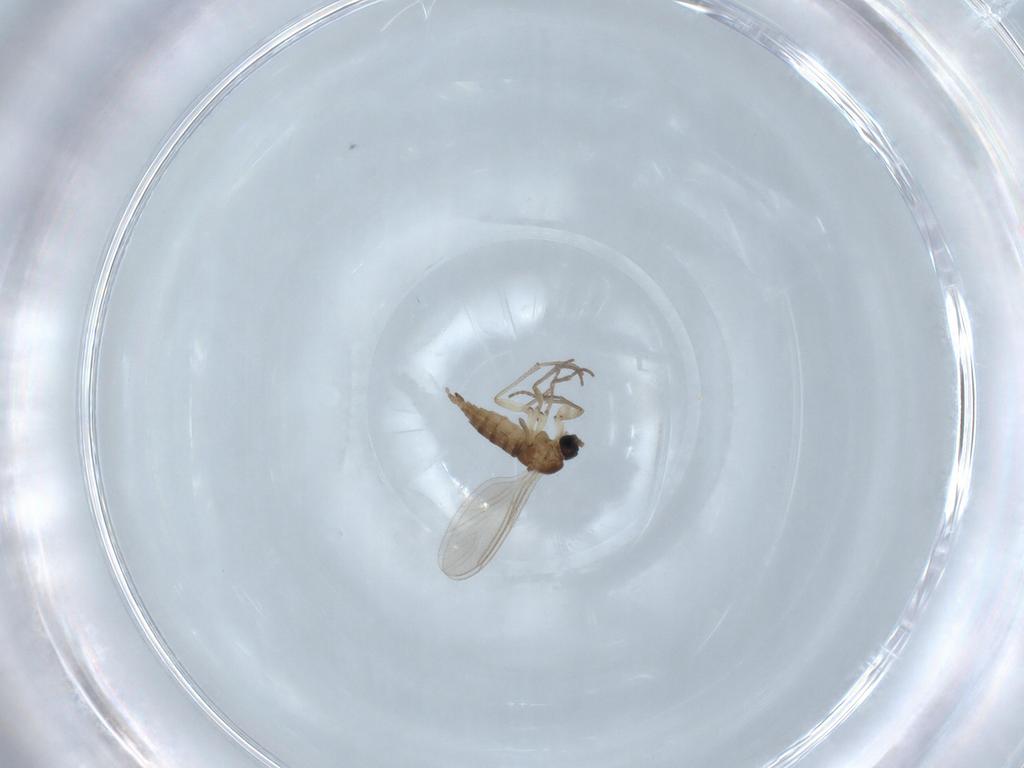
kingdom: Animalia
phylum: Arthropoda
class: Insecta
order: Diptera
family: Sciaridae
